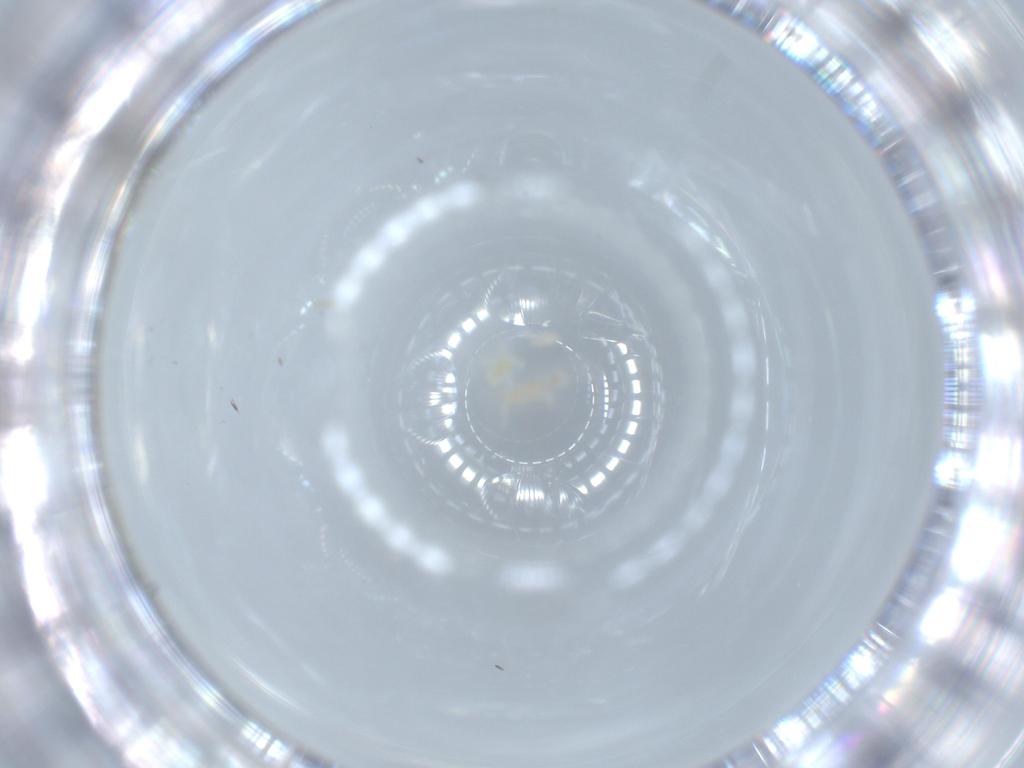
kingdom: Animalia
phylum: Arthropoda
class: Insecta
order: Diptera
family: Cecidomyiidae
